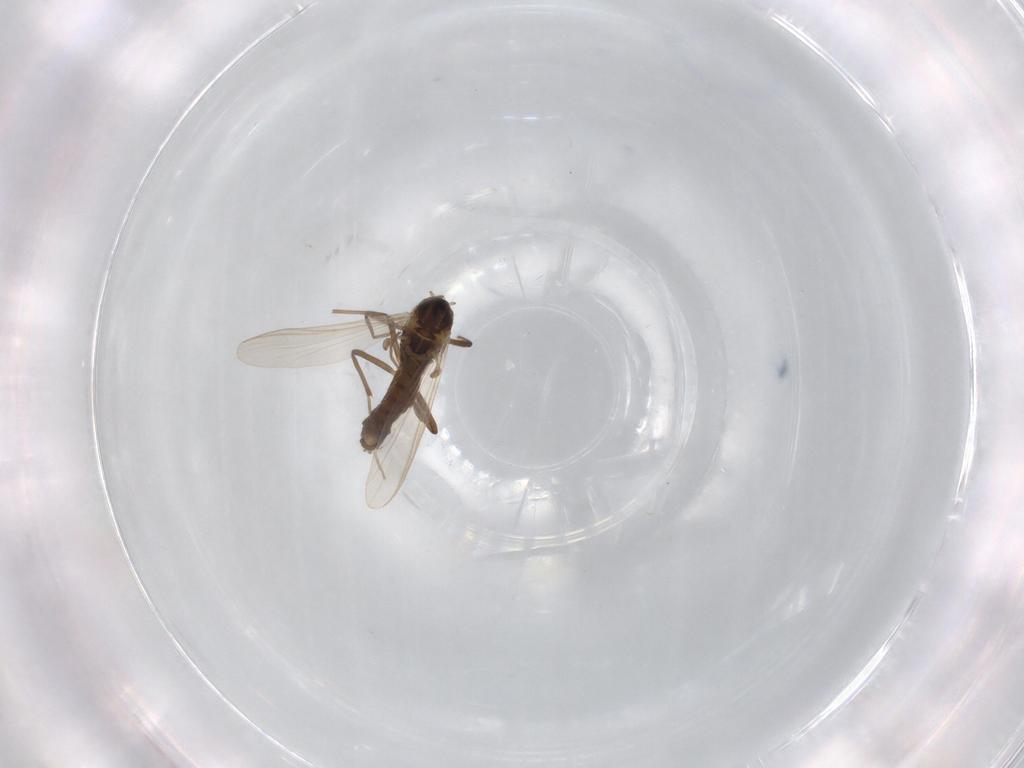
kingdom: Animalia
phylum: Arthropoda
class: Insecta
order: Diptera
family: Chironomidae
